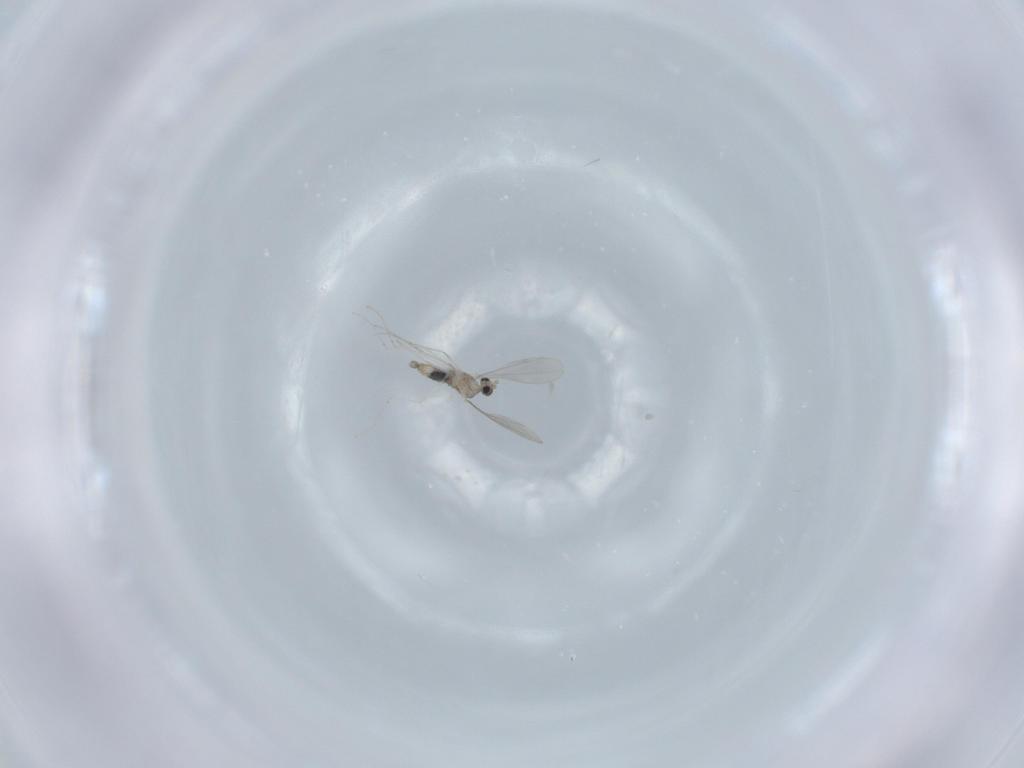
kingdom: Animalia
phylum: Arthropoda
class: Insecta
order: Diptera
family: Cecidomyiidae
